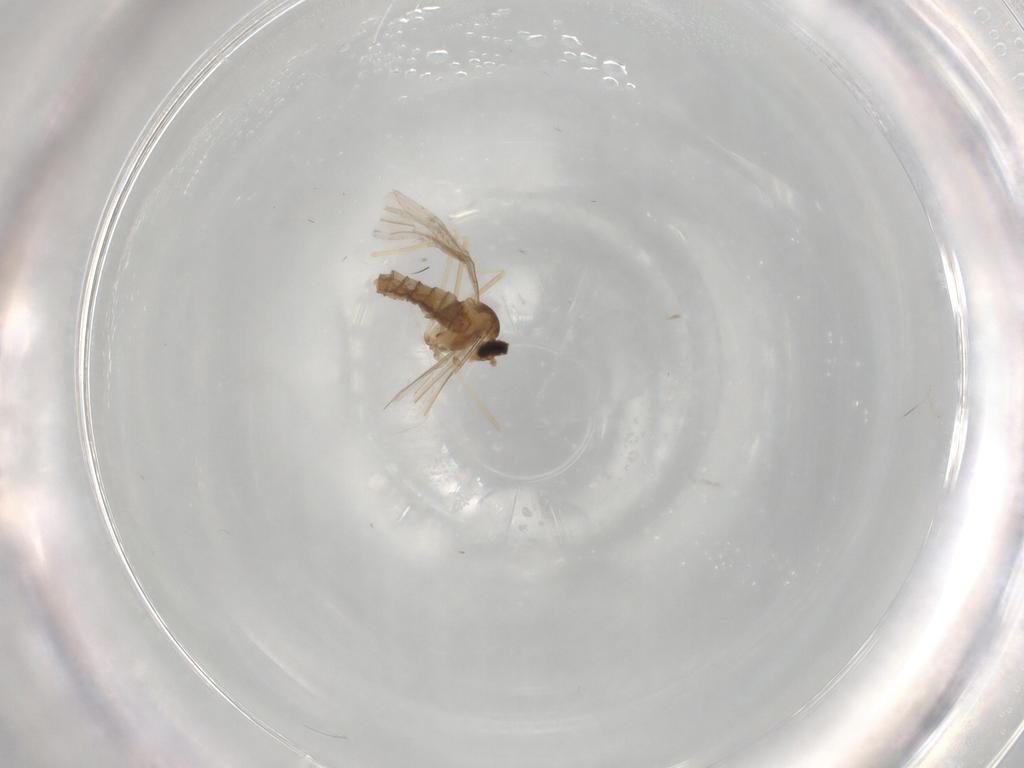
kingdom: Animalia
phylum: Arthropoda
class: Insecta
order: Diptera
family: Cecidomyiidae
